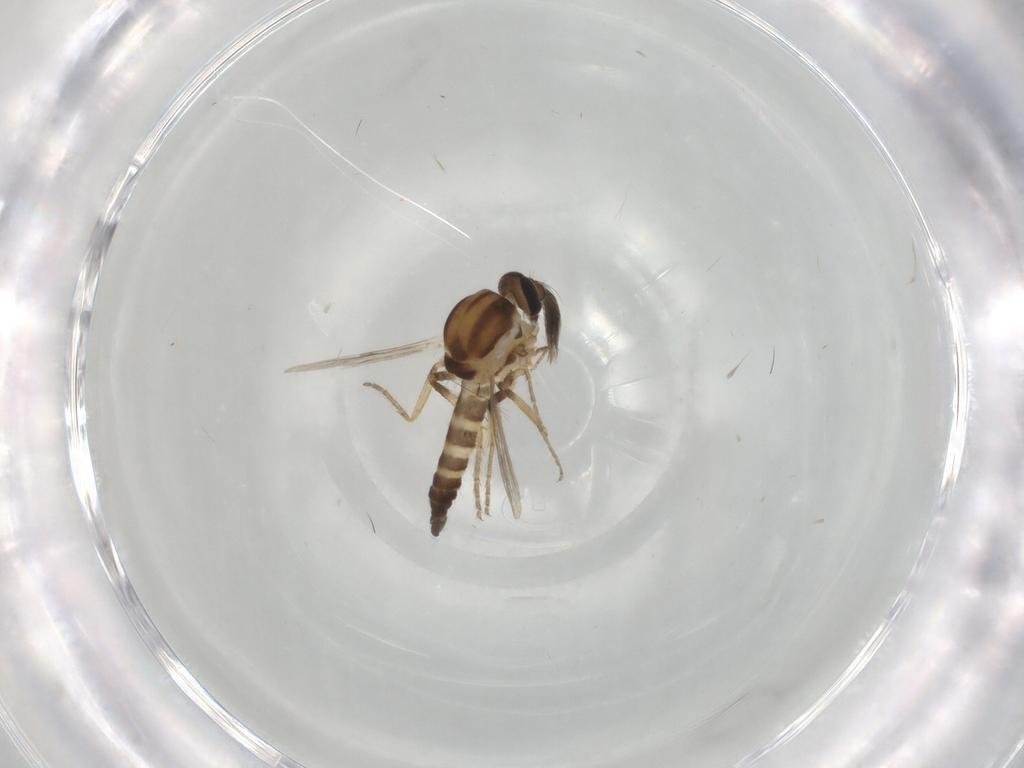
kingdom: Animalia
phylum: Arthropoda
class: Insecta
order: Diptera
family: Ceratopogonidae
